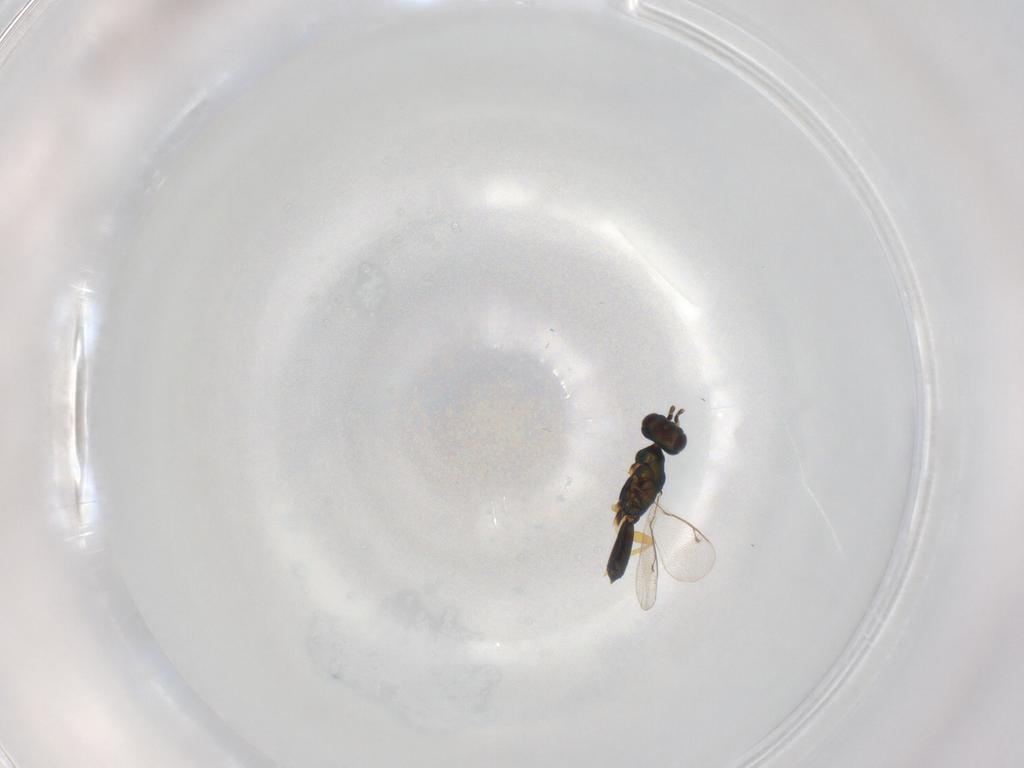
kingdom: Animalia
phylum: Arthropoda
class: Insecta
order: Hymenoptera
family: Eupelmidae
